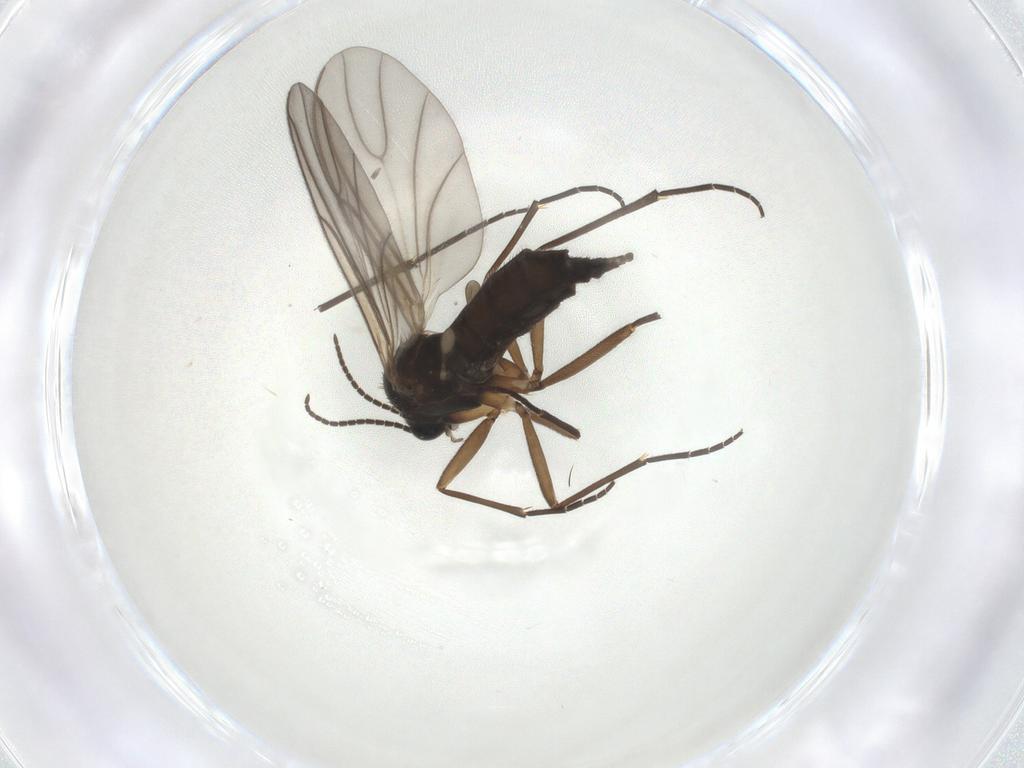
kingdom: Animalia
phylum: Arthropoda
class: Insecta
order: Diptera
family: Sciaridae
